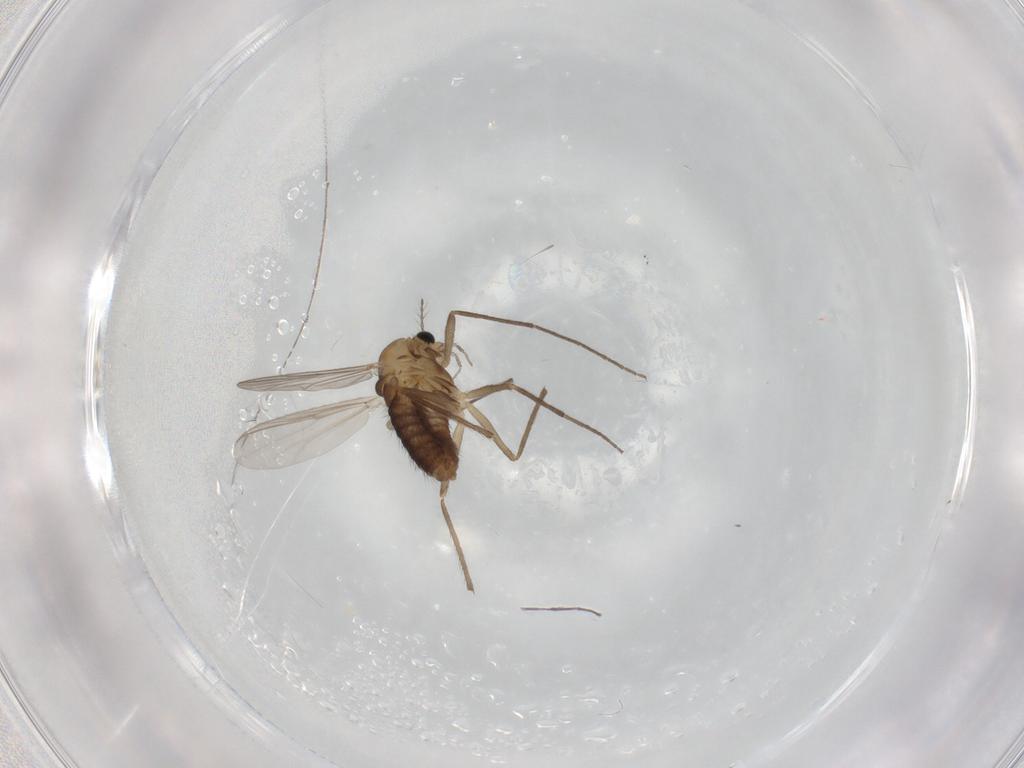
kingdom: Animalia
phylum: Arthropoda
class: Insecta
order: Diptera
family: Chironomidae
